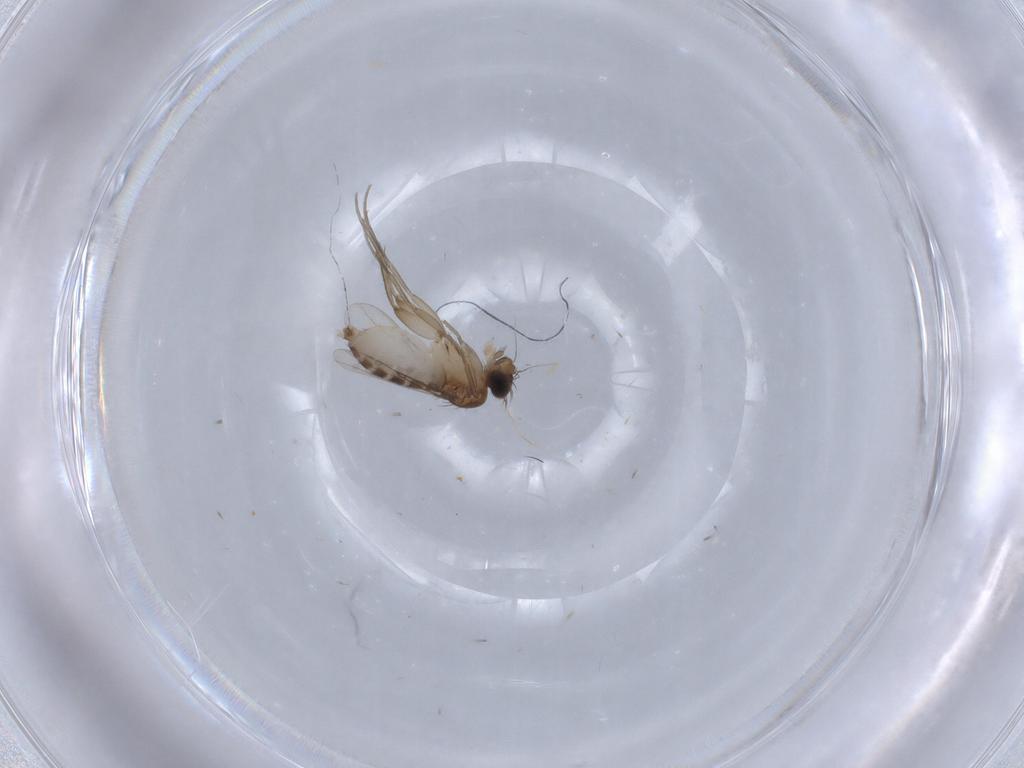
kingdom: Animalia
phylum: Arthropoda
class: Insecta
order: Diptera
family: Phoridae
